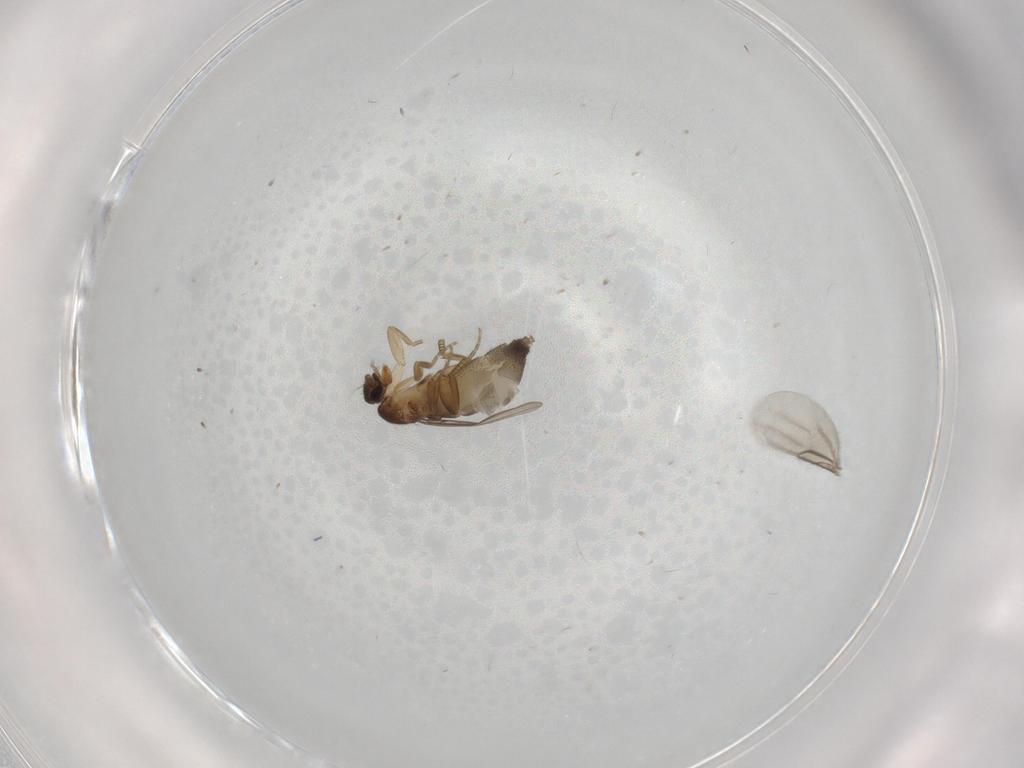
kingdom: Animalia
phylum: Arthropoda
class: Insecta
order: Diptera
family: Phoridae
